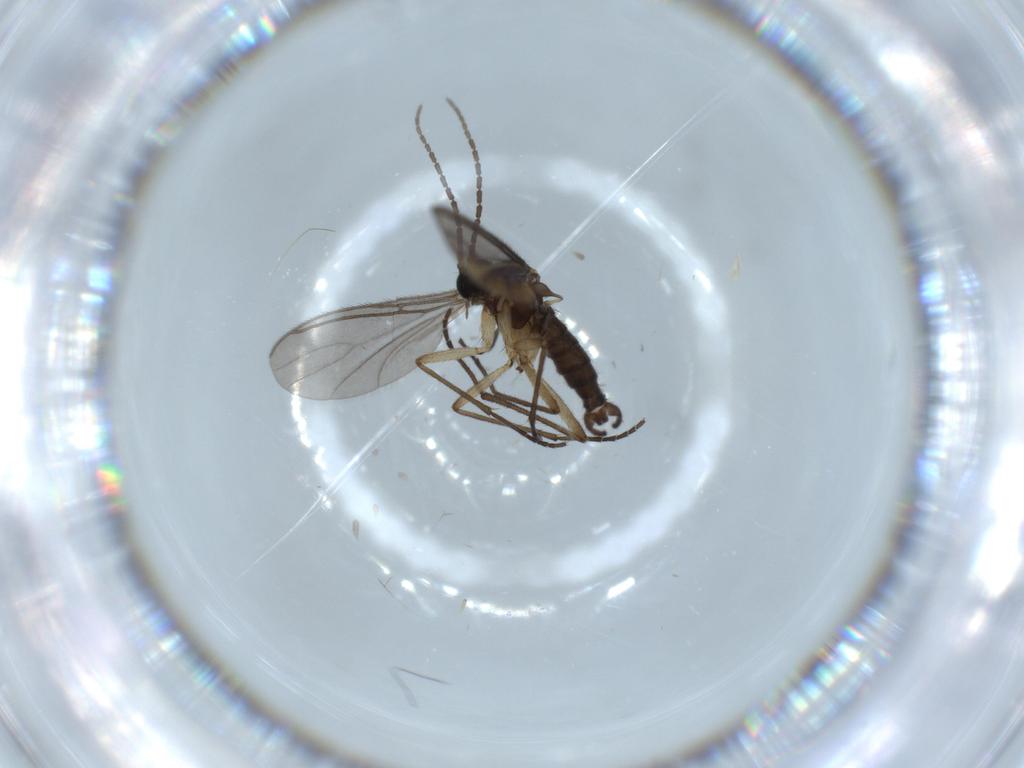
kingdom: Animalia
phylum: Arthropoda
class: Insecta
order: Diptera
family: Sciaridae
